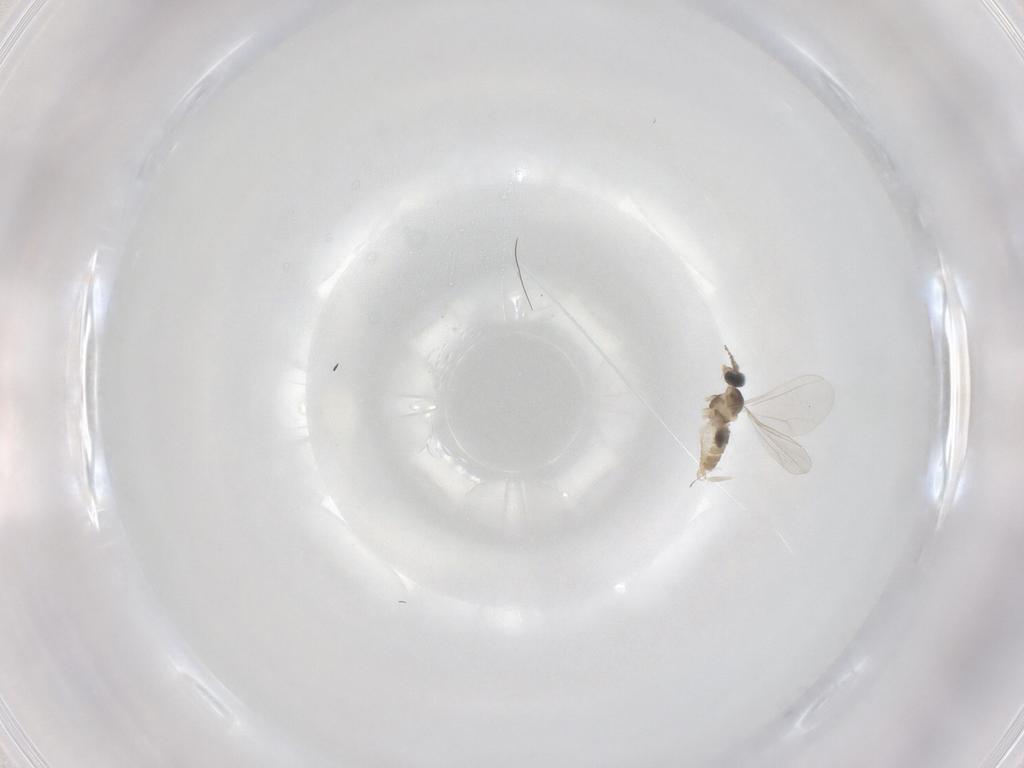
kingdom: Animalia
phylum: Arthropoda
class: Insecta
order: Diptera
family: Cecidomyiidae
